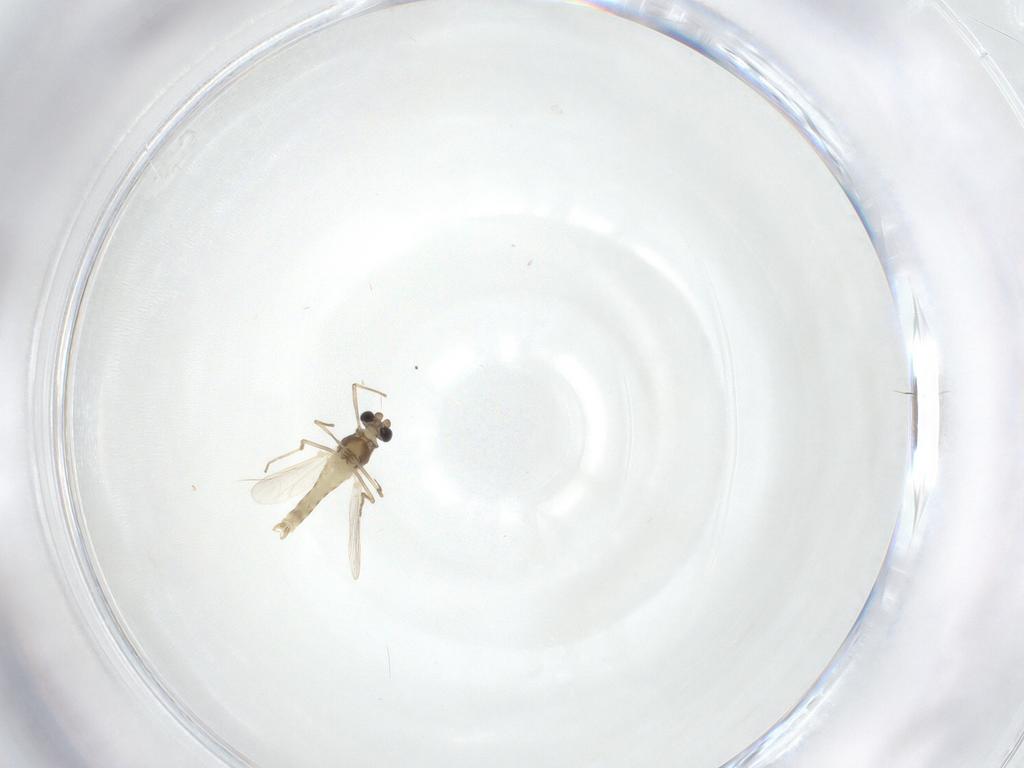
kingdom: Animalia
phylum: Arthropoda
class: Insecta
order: Diptera
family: Chironomidae
